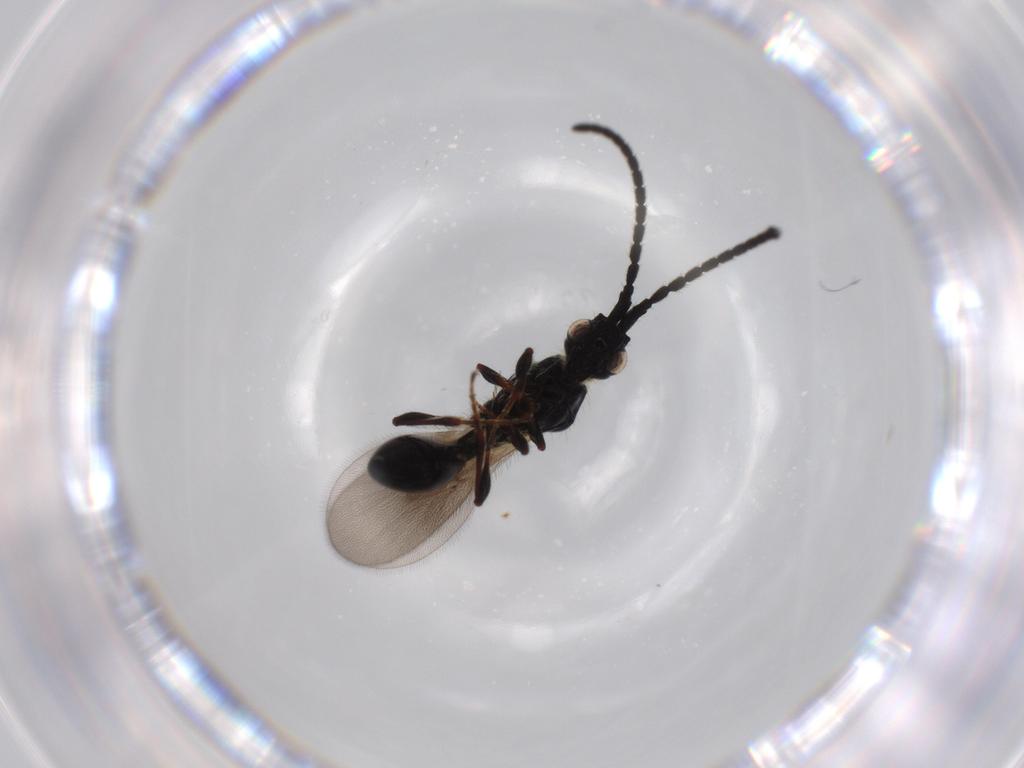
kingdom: Animalia
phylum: Arthropoda
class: Insecta
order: Hymenoptera
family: Diapriidae
